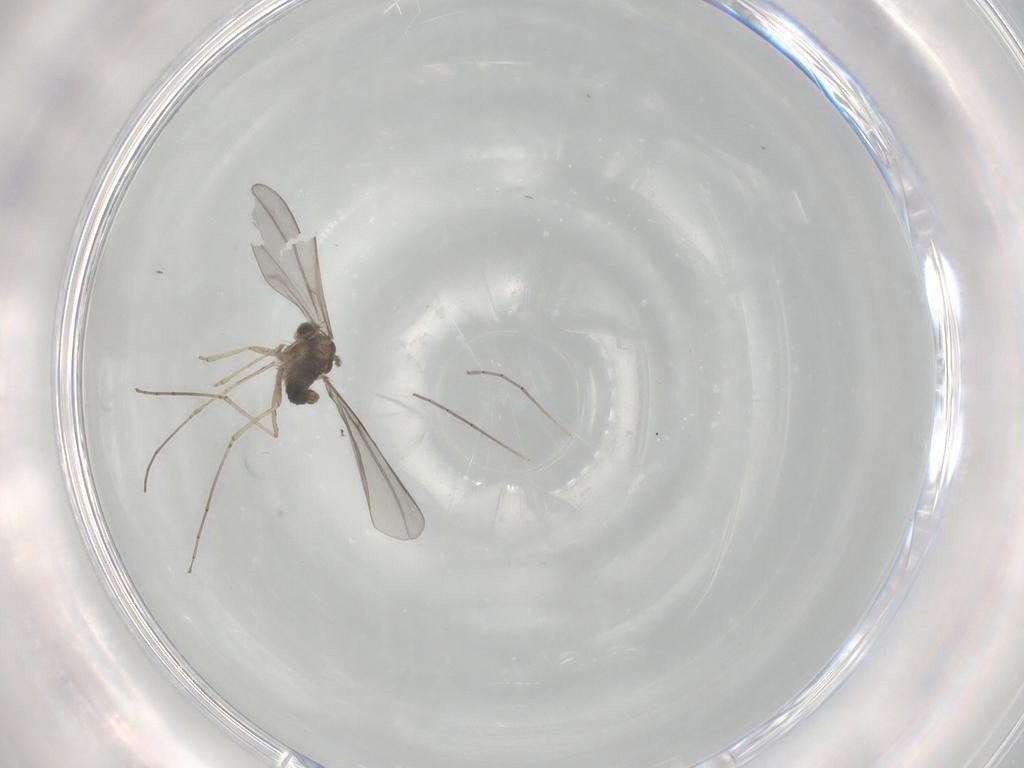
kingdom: Animalia
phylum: Arthropoda
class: Insecta
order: Diptera
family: Cecidomyiidae
